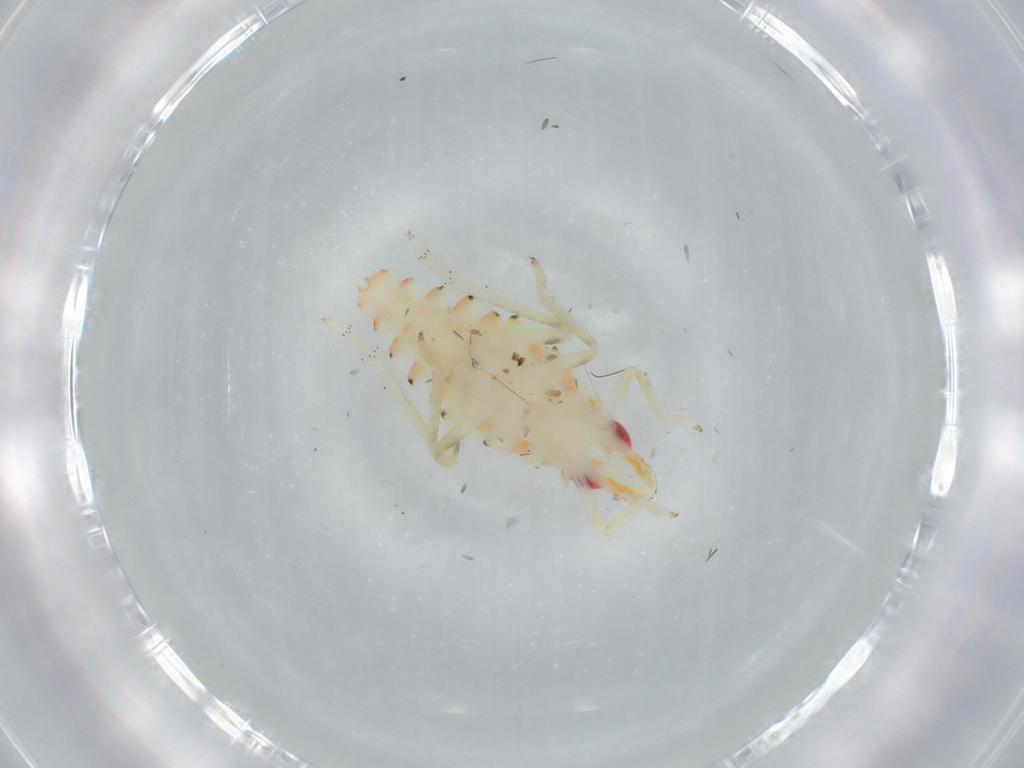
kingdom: Animalia
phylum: Arthropoda
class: Insecta
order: Hemiptera
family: Tropiduchidae
